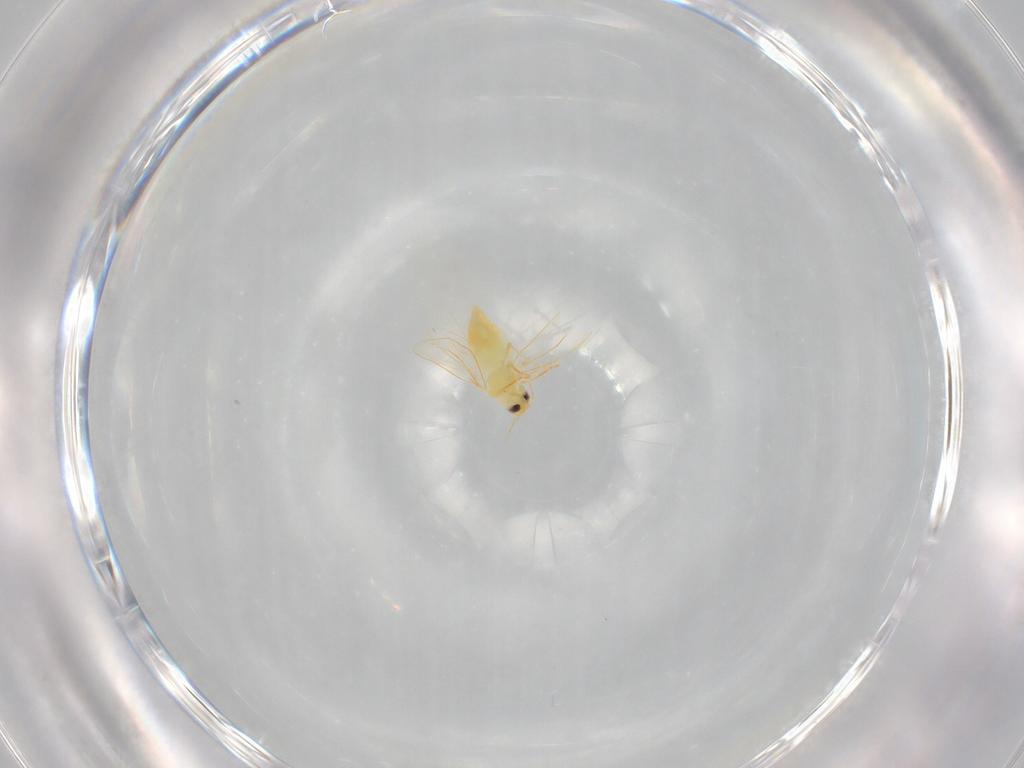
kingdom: Animalia
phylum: Arthropoda
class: Insecta
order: Hemiptera
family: Aleyrodidae
